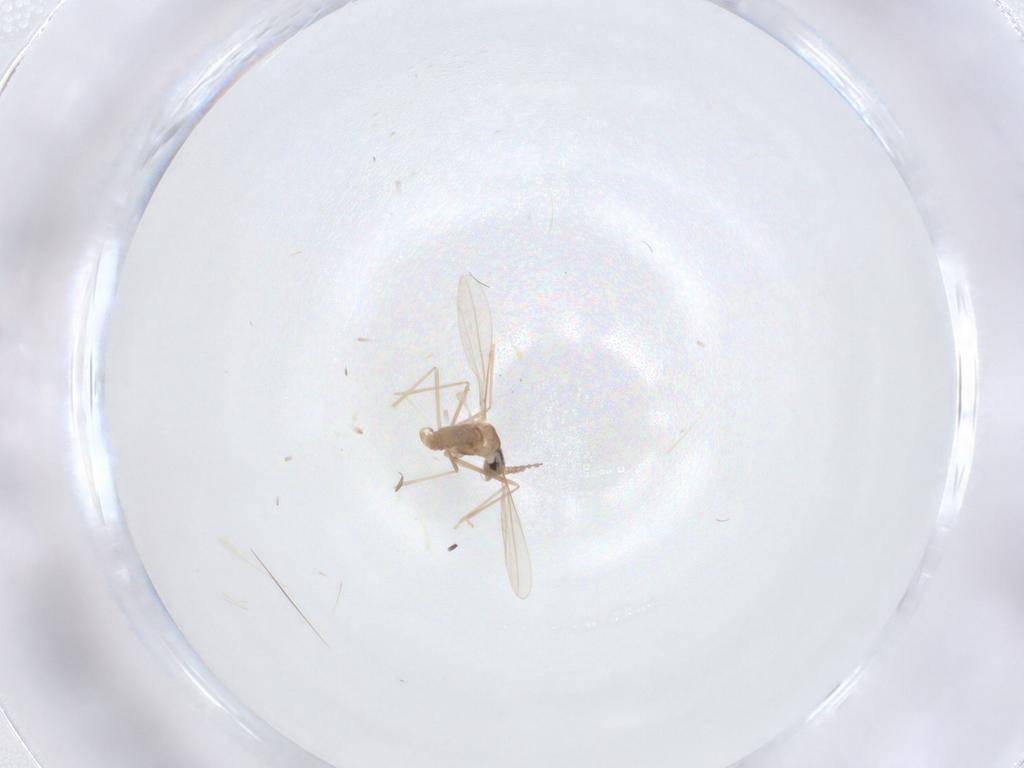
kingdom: Animalia
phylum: Arthropoda
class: Insecta
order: Diptera
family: Cecidomyiidae
